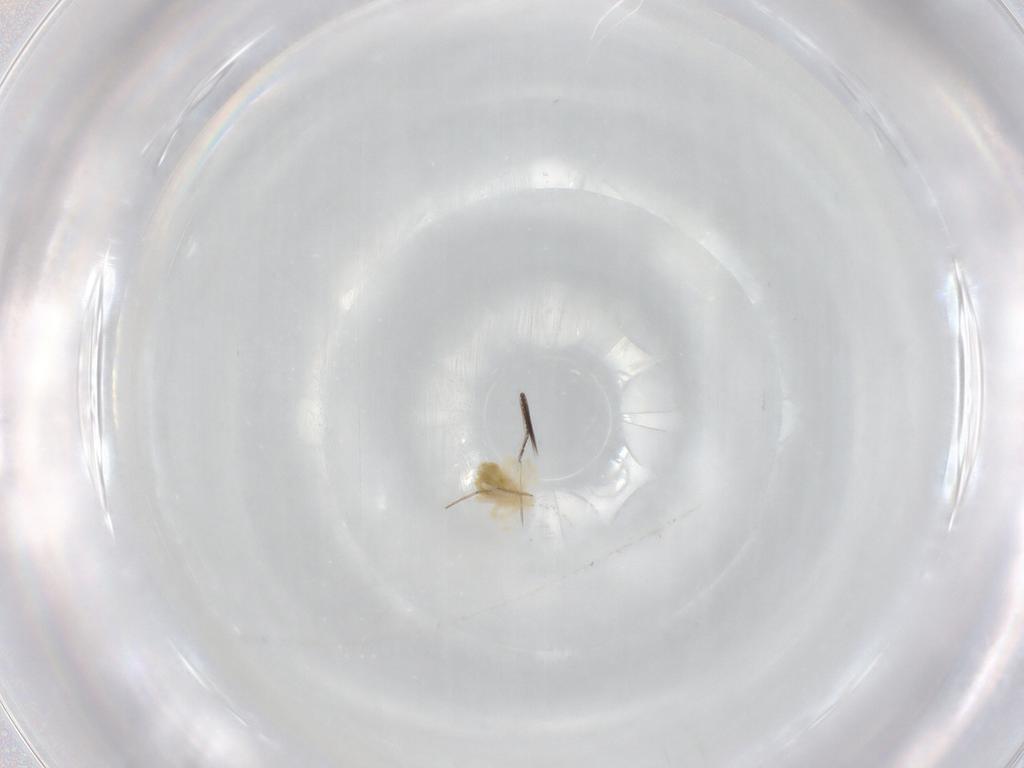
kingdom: Animalia
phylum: Arthropoda
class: Arachnida
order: Trombidiformes
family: Anystidae
